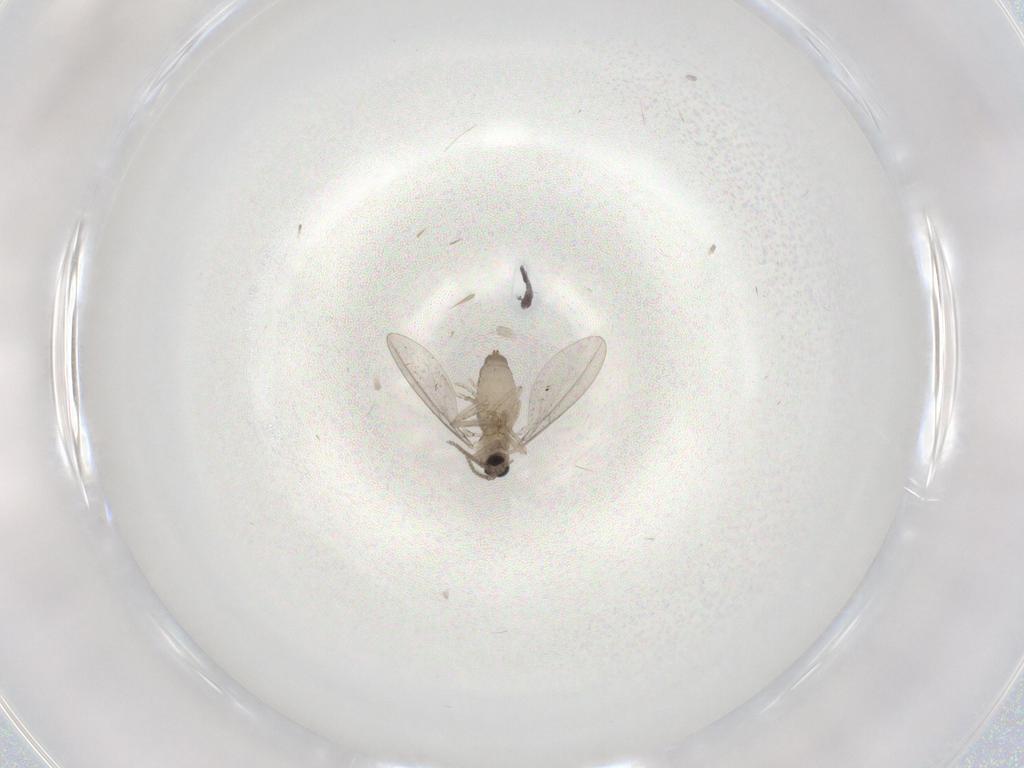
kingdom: Animalia
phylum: Arthropoda
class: Insecta
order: Diptera
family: Cecidomyiidae
